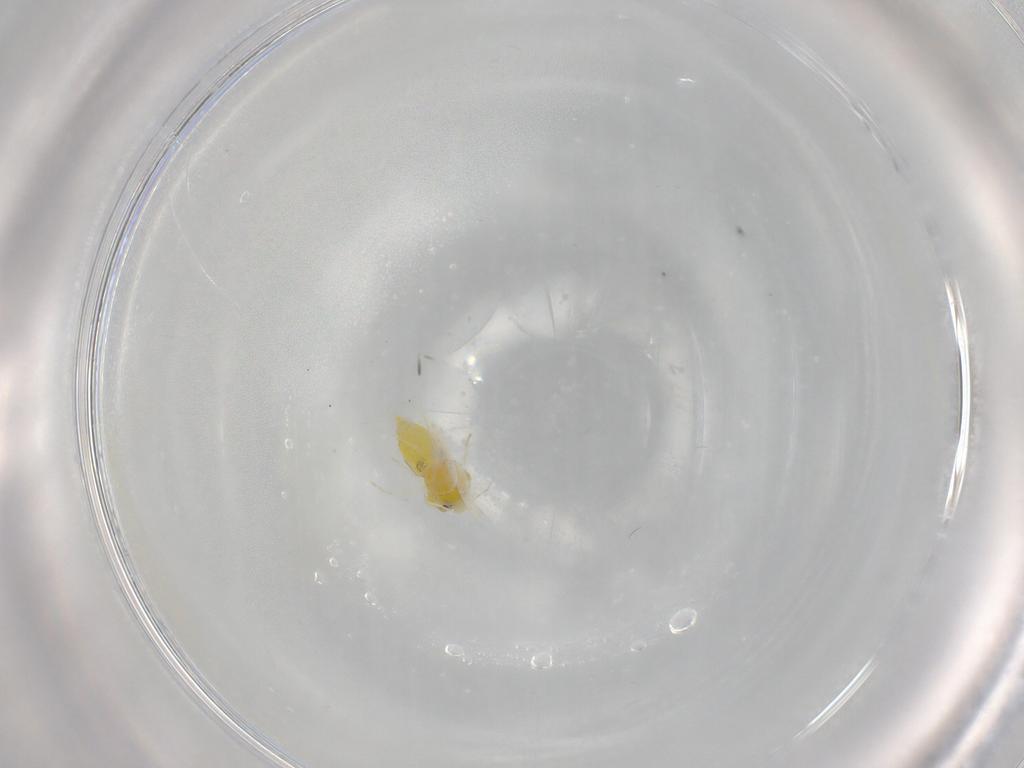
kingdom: Animalia
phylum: Arthropoda
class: Insecta
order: Hemiptera
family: Aleyrodidae
